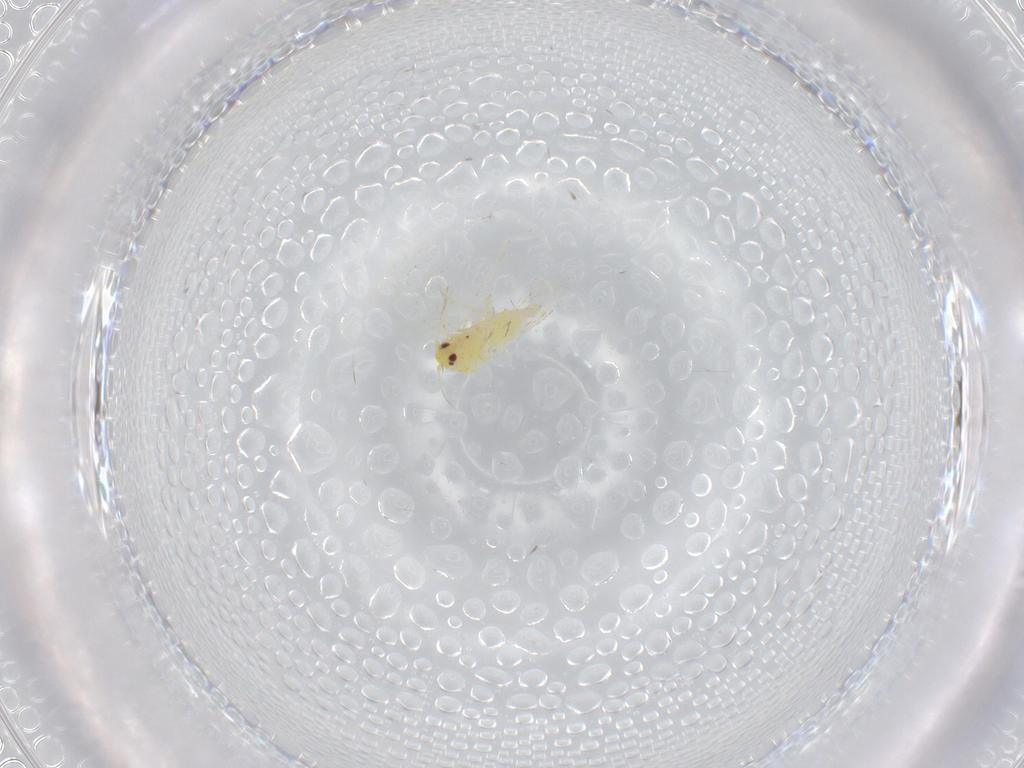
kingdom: Animalia
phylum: Arthropoda
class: Insecta
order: Hemiptera
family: Aleyrodidae
